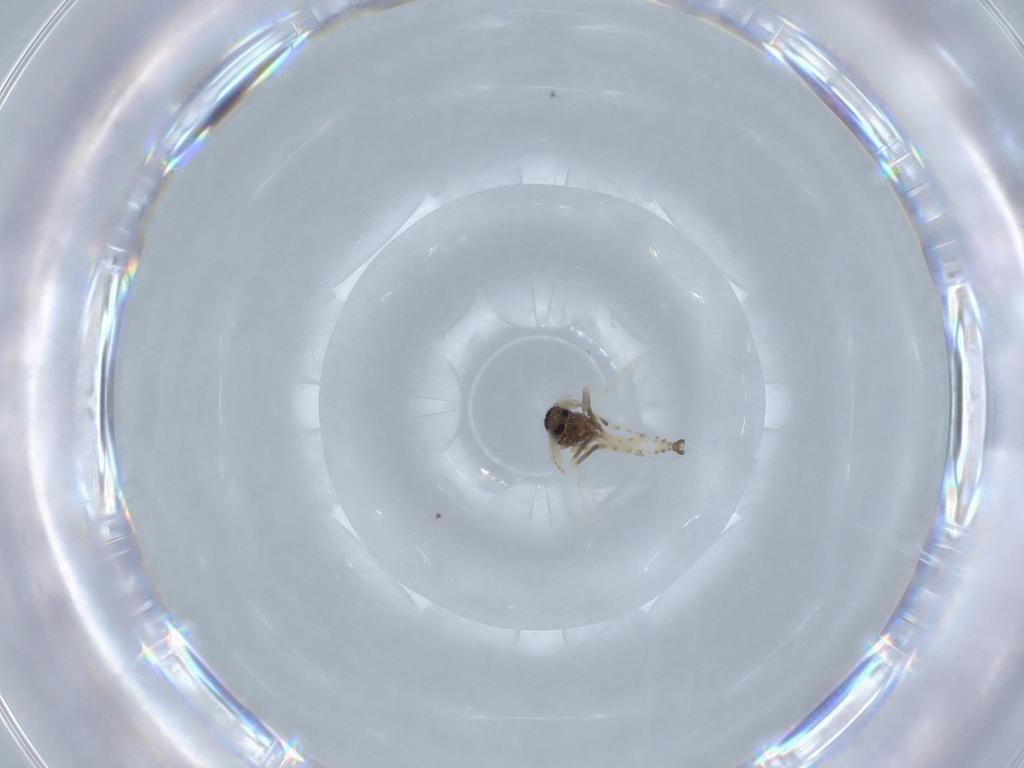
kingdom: Animalia
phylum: Arthropoda
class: Insecta
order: Diptera
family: Ceratopogonidae
